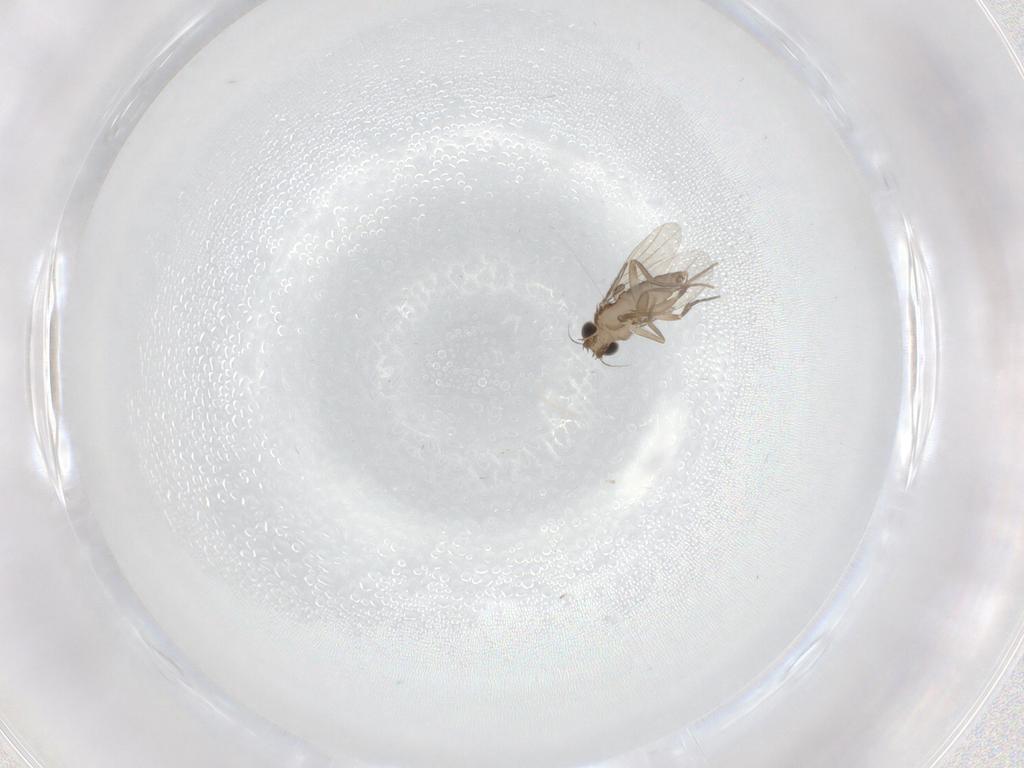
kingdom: Animalia
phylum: Arthropoda
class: Insecta
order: Diptera
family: Phoridae
